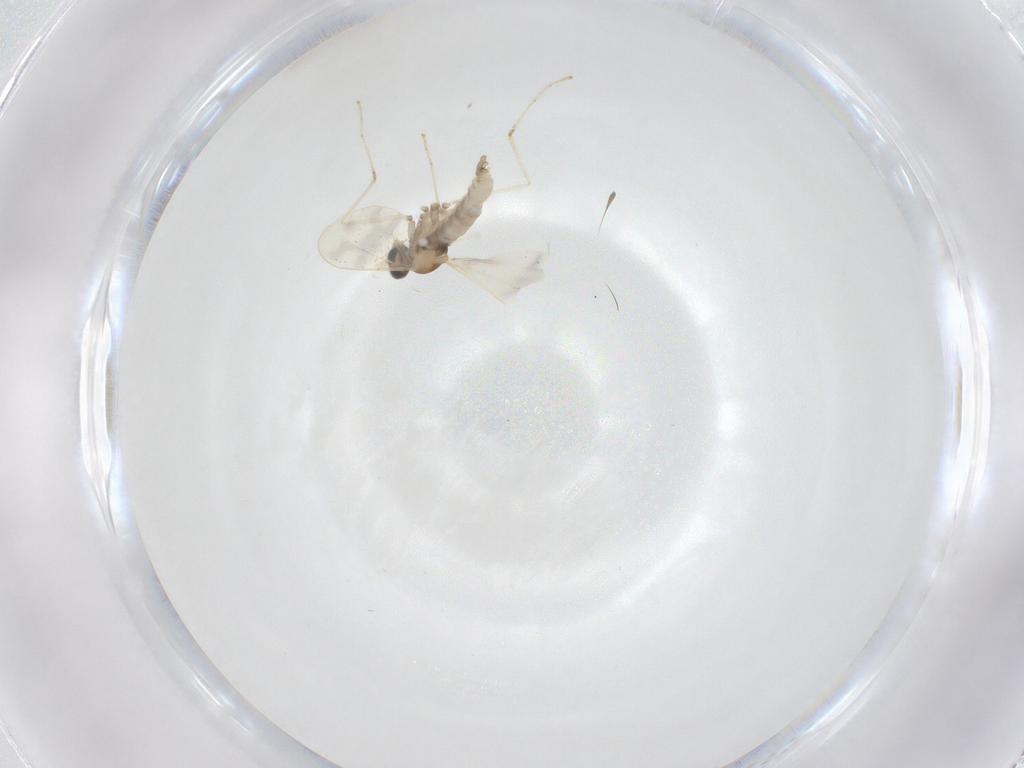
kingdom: Animalia
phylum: Arthropoda
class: Insecta
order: Diptera
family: Cecidomyiidae
